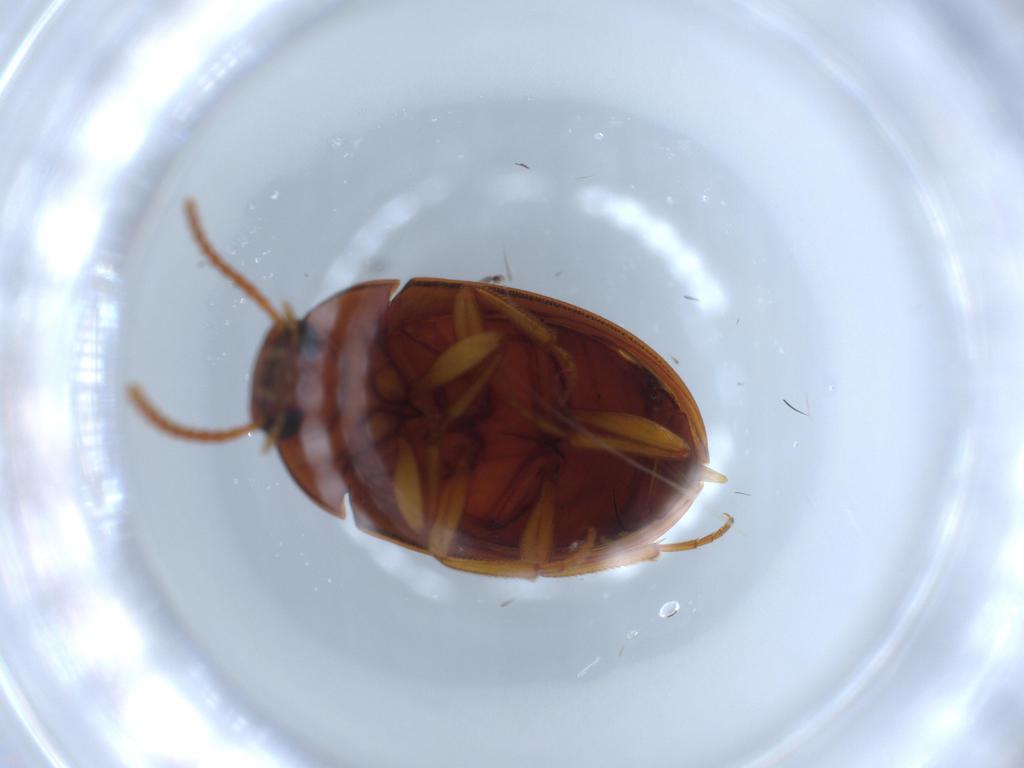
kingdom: Animalia
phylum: Arthropoda
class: Insecta
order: Coleoptera
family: Tenebrionidae
